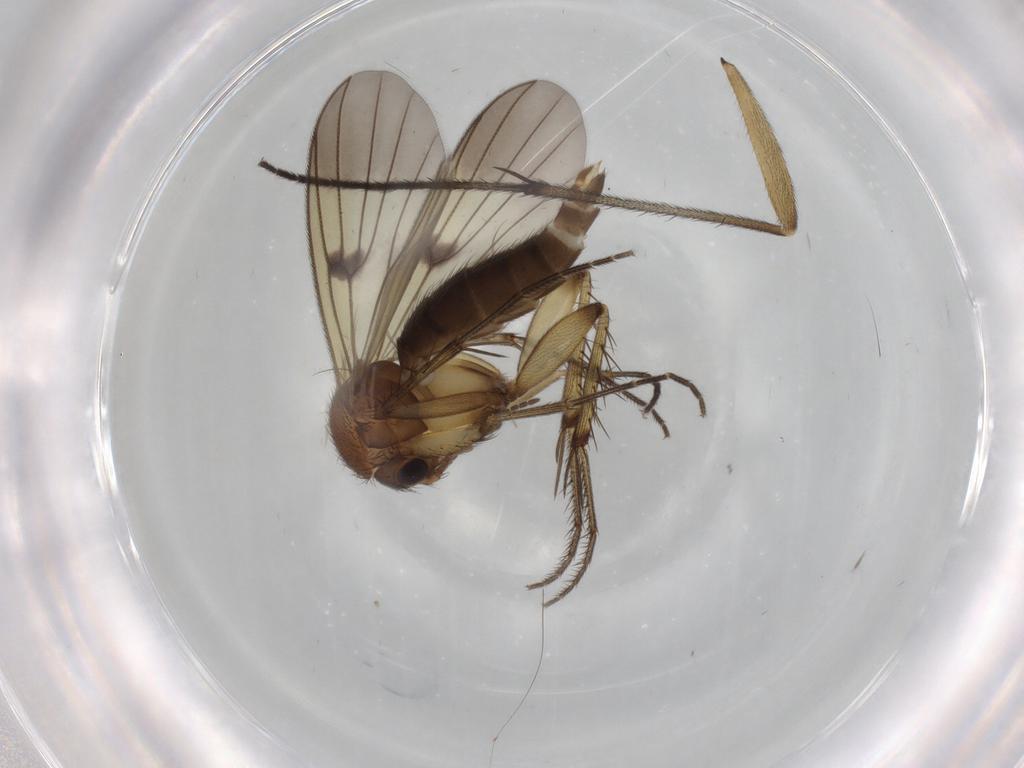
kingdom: Animalia
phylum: Arthropoda
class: Insecta
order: Diptera
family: Mycetophilidae
